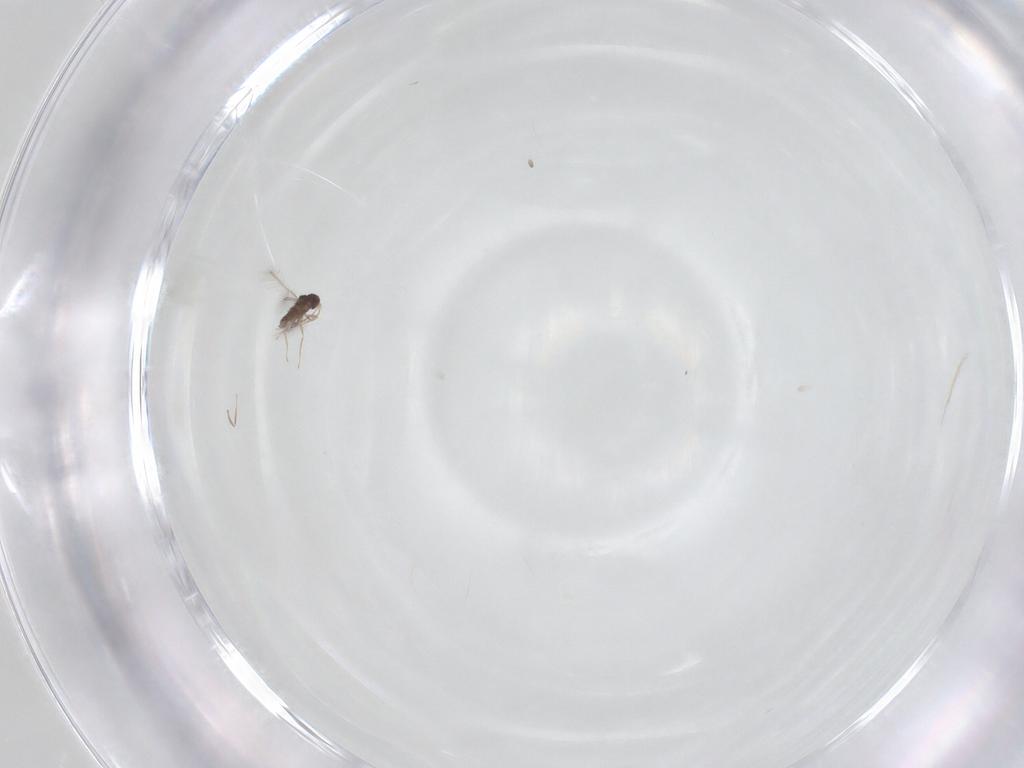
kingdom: Animalia
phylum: Arthropoda
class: Insecta
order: Hymenoptera
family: Mymaridae
